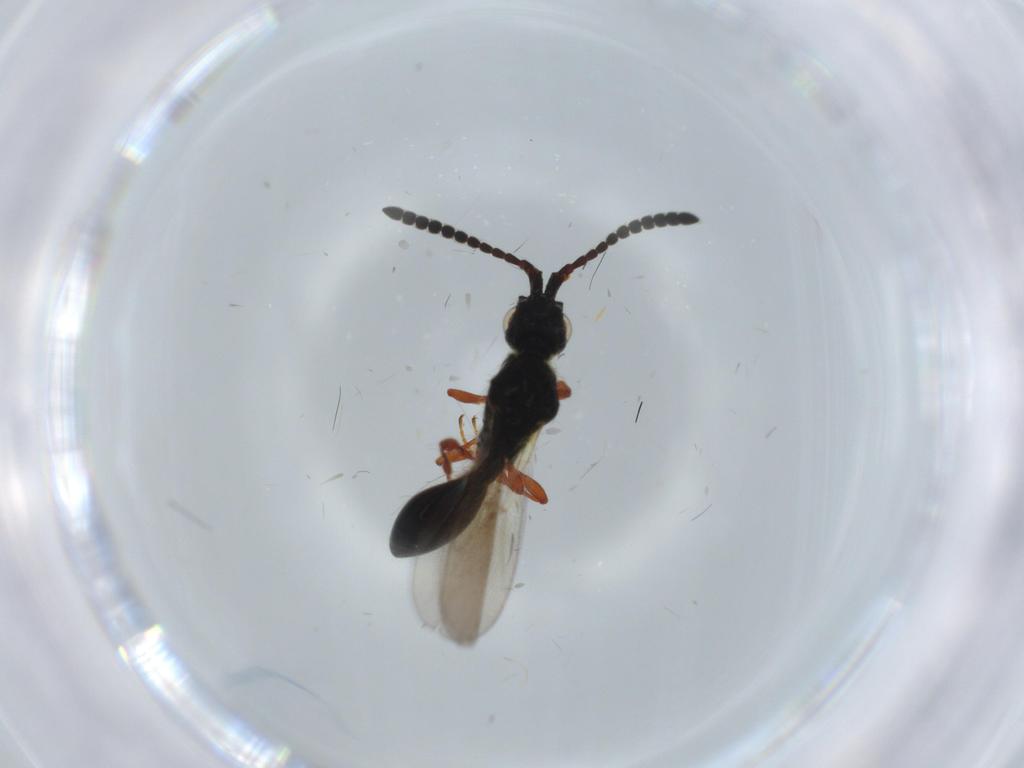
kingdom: Animalia
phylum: Arthropoda
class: Insecta
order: Hymenoptera
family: Diapriidae
